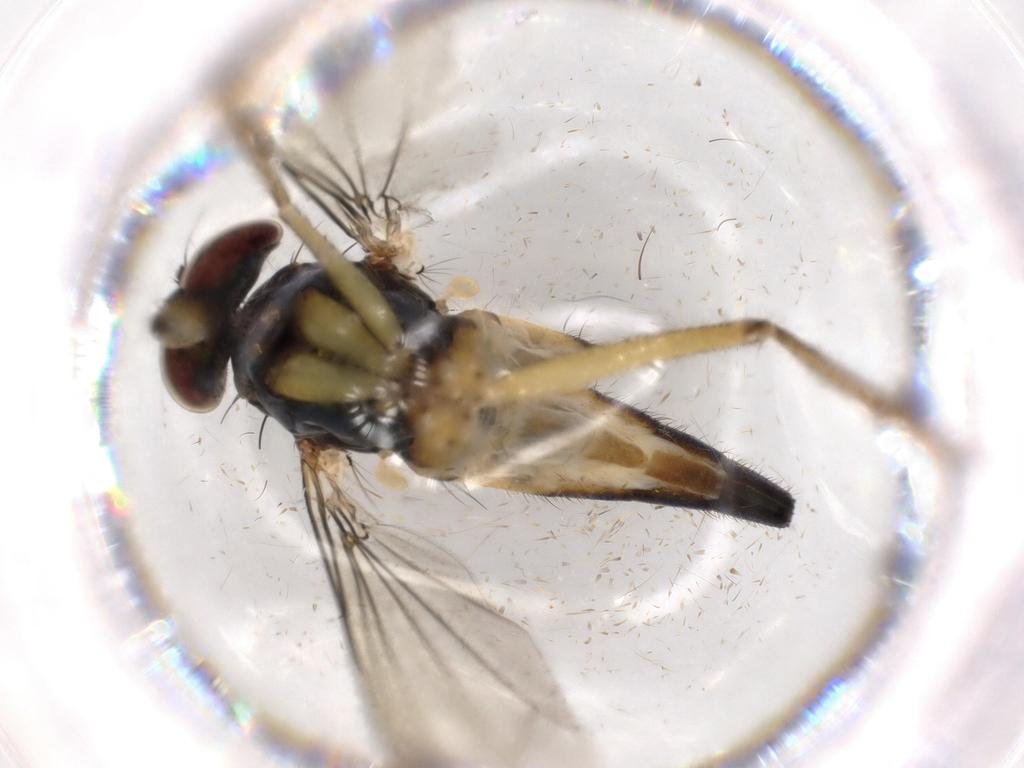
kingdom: Animalia
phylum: Arthropoda
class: Insecta
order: Diptera
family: Dolichopodidae
